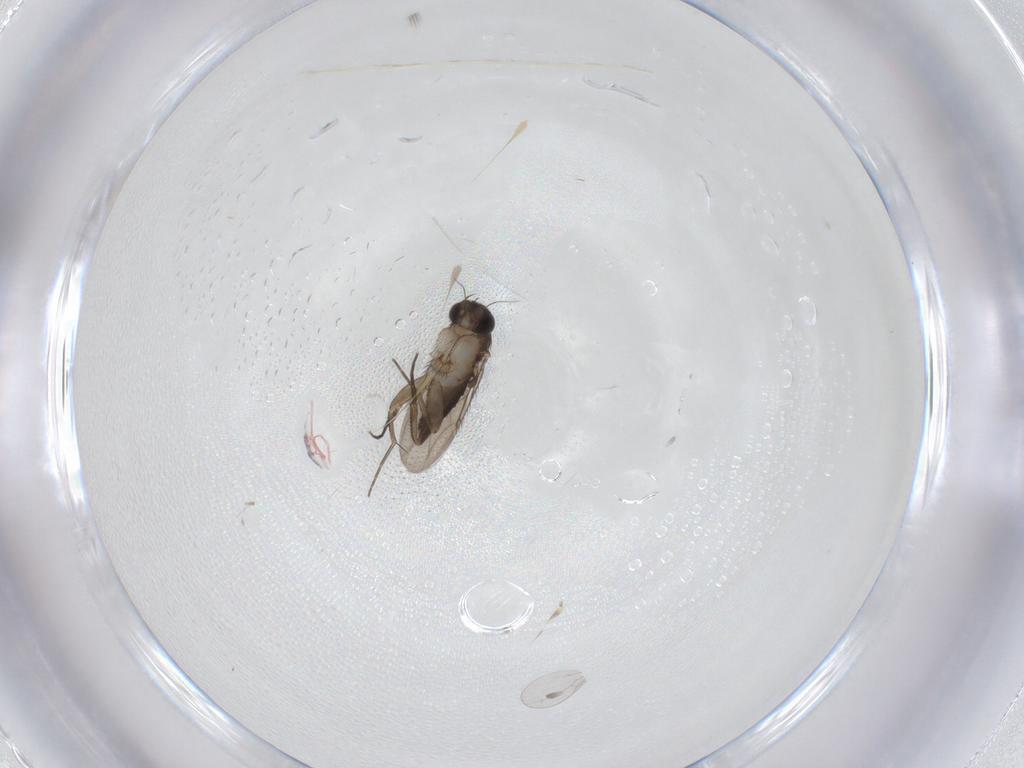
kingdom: Animalia
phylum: Arthropoda
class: Insecta
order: Diptera
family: Phoridae
